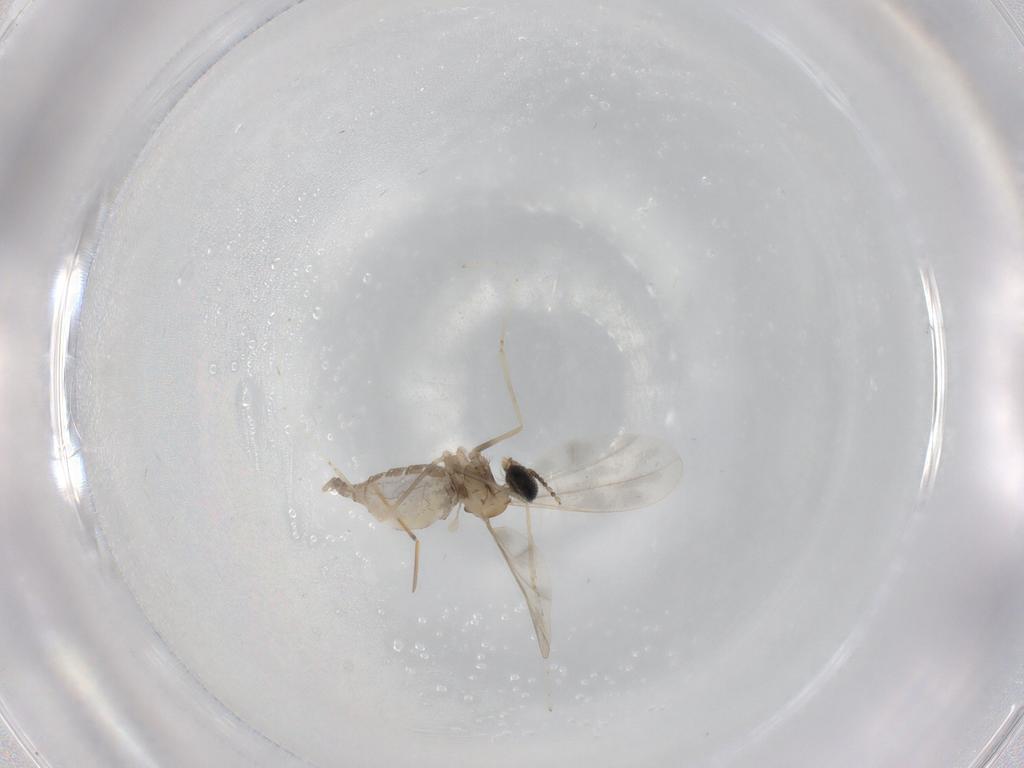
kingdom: Animalia
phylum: Arthropoda
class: Insecta
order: Diptera
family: Cecidomyiidae
